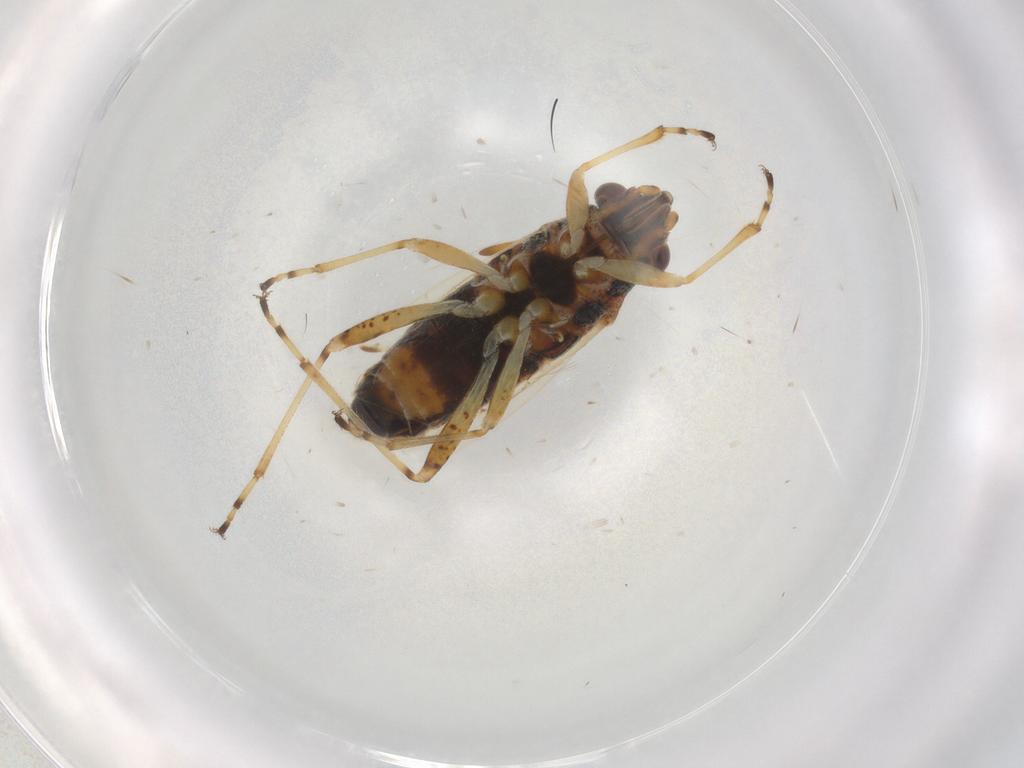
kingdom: Animalia
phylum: Arthropoda
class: Insecta
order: Hemiptera
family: Lygaeidae
